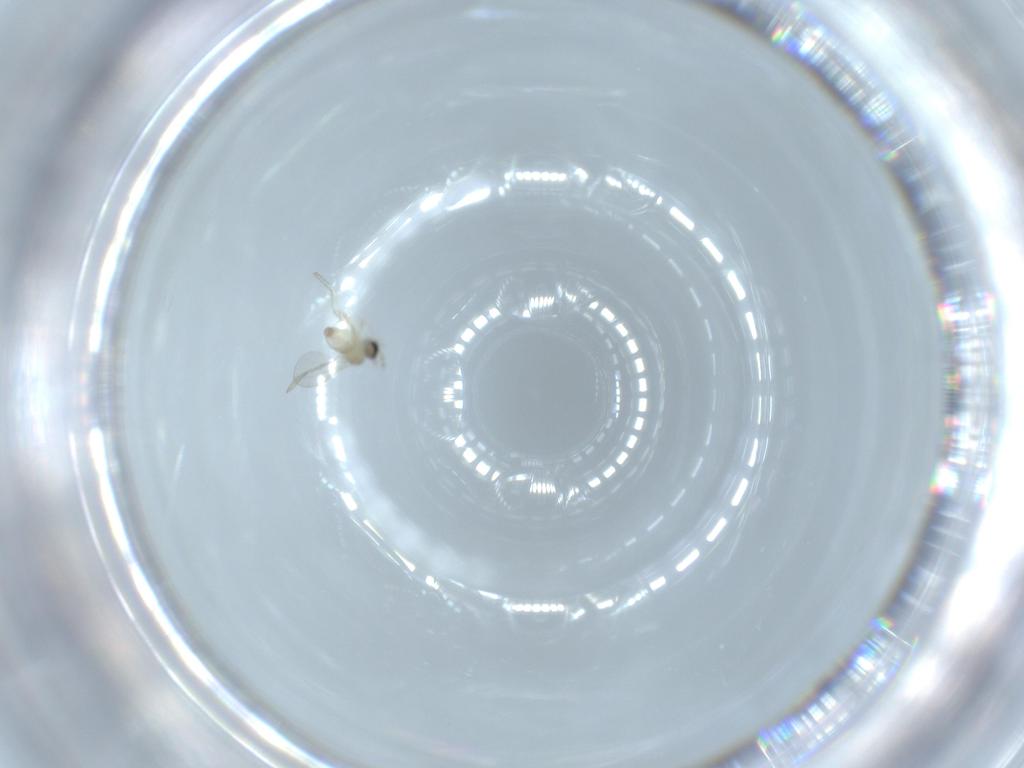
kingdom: Animalia
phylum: Arthropoda
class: Insecta
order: Diptera
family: Cecidomyiidae
